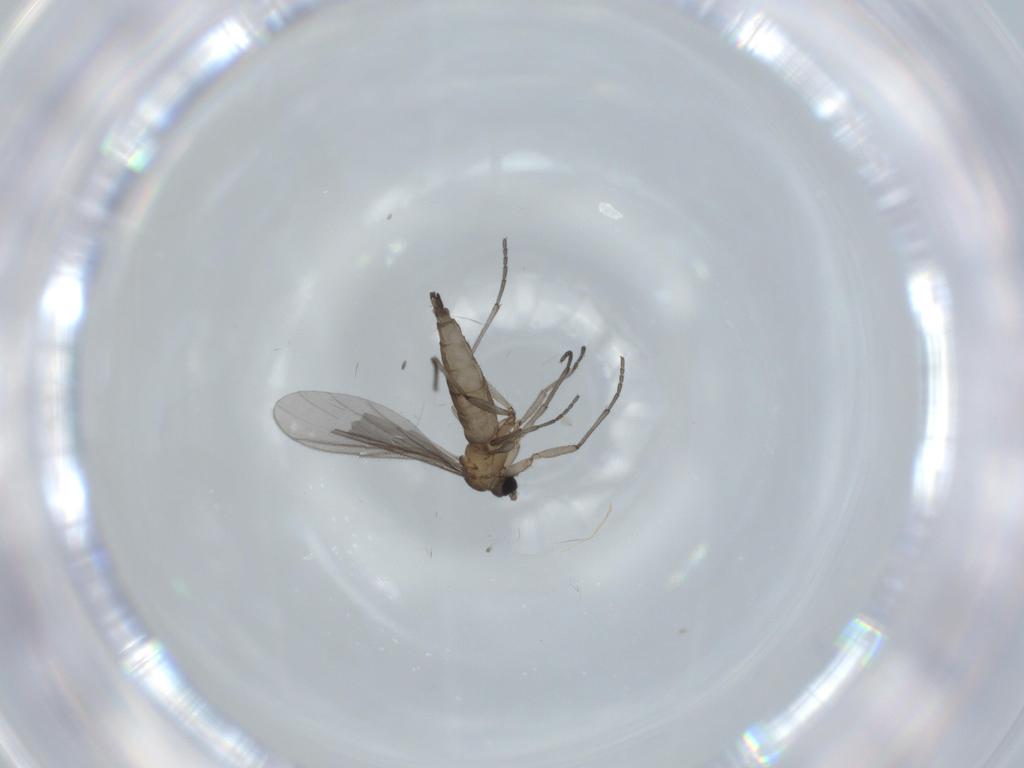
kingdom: Animalia
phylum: Arthropoda
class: Insecta
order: Diptera
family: Sciaridae
